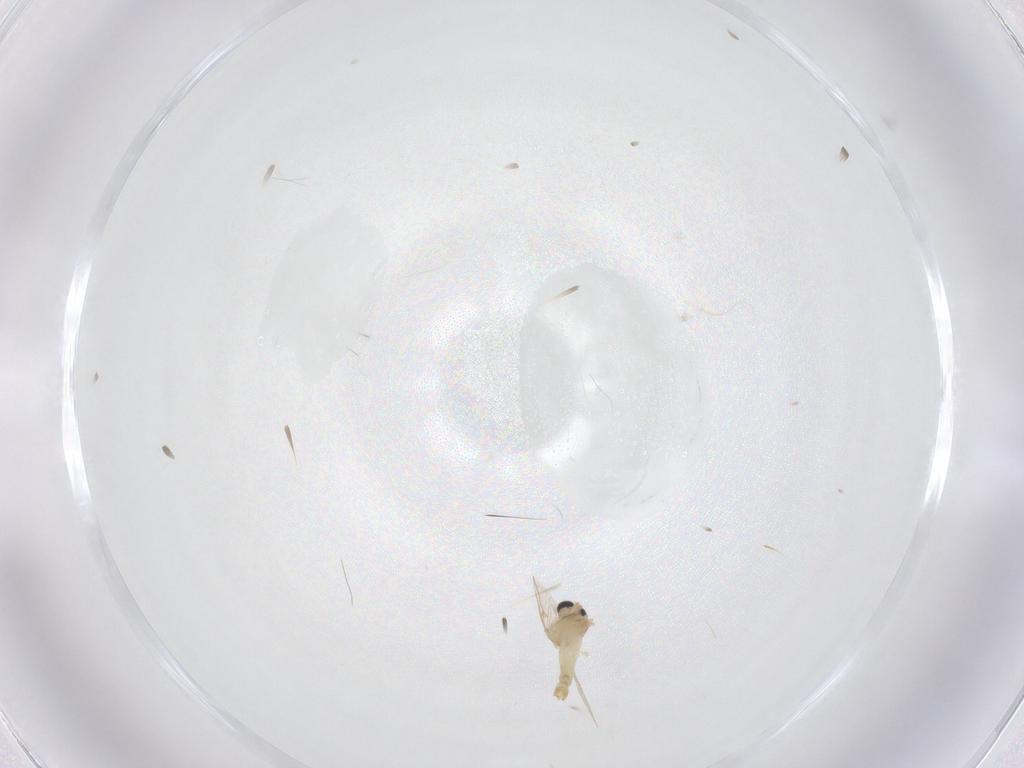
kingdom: Animalia
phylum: Arthropoda
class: Insecta
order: Diptera
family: Chironomidae
